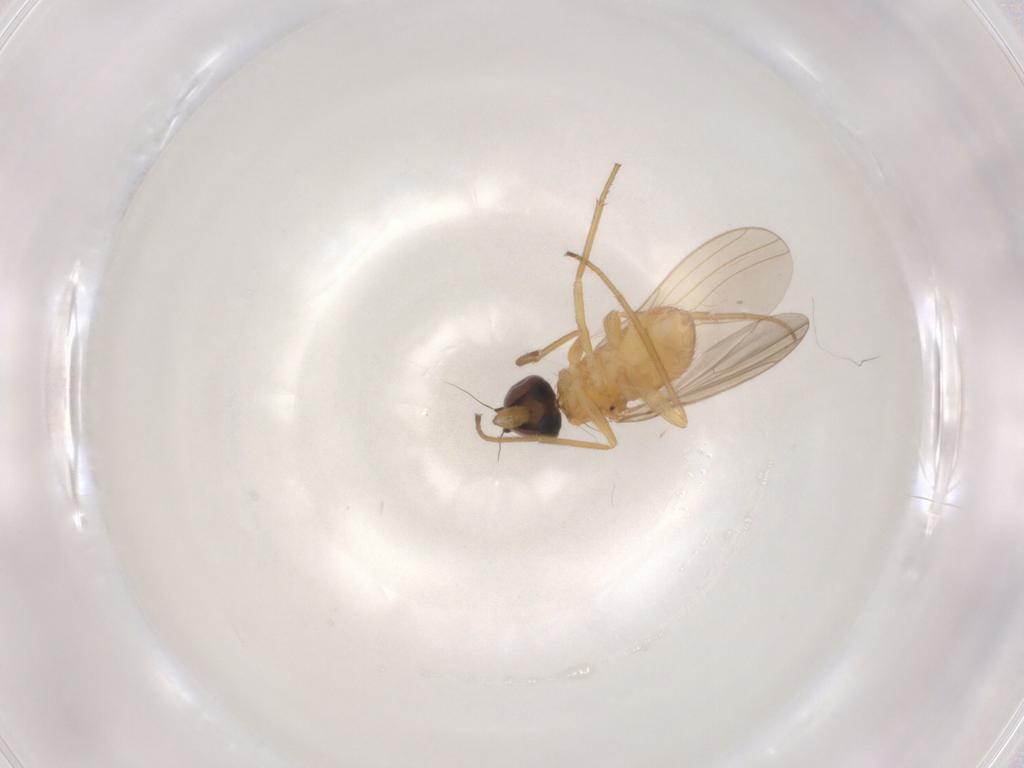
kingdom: Animalia
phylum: Arthropoda
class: Insecta
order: Diptera
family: Dolichopodidae
